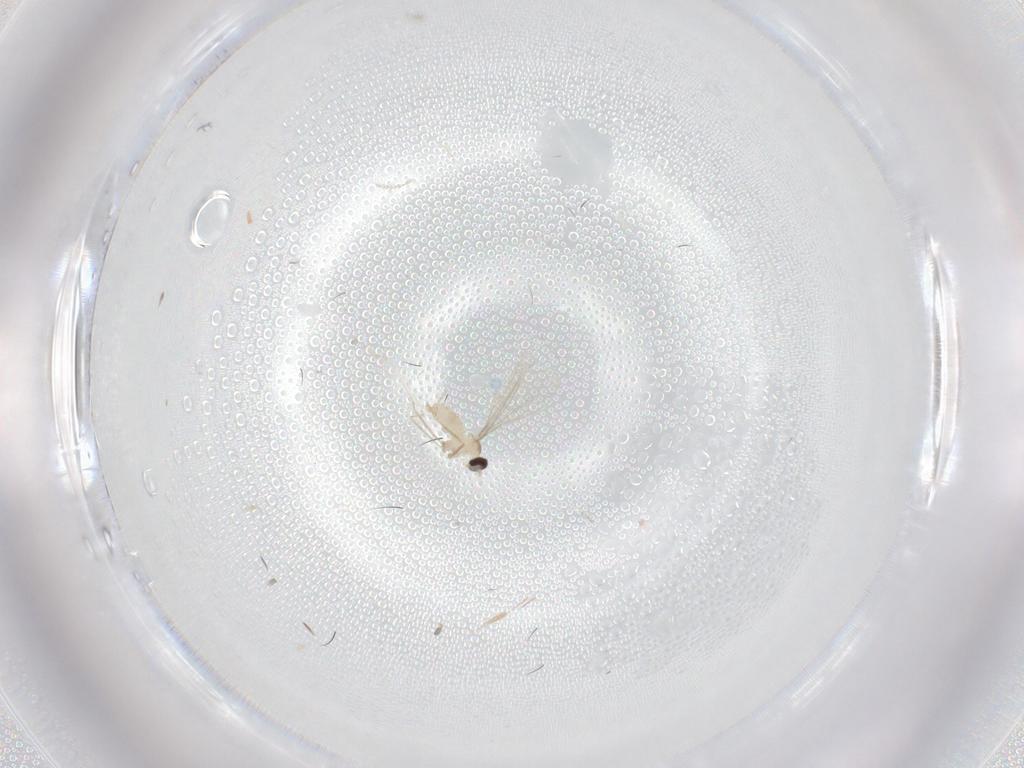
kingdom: Animalia
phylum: Arthropoda
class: Insecta
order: Diptera
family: Cecidomyiidae
